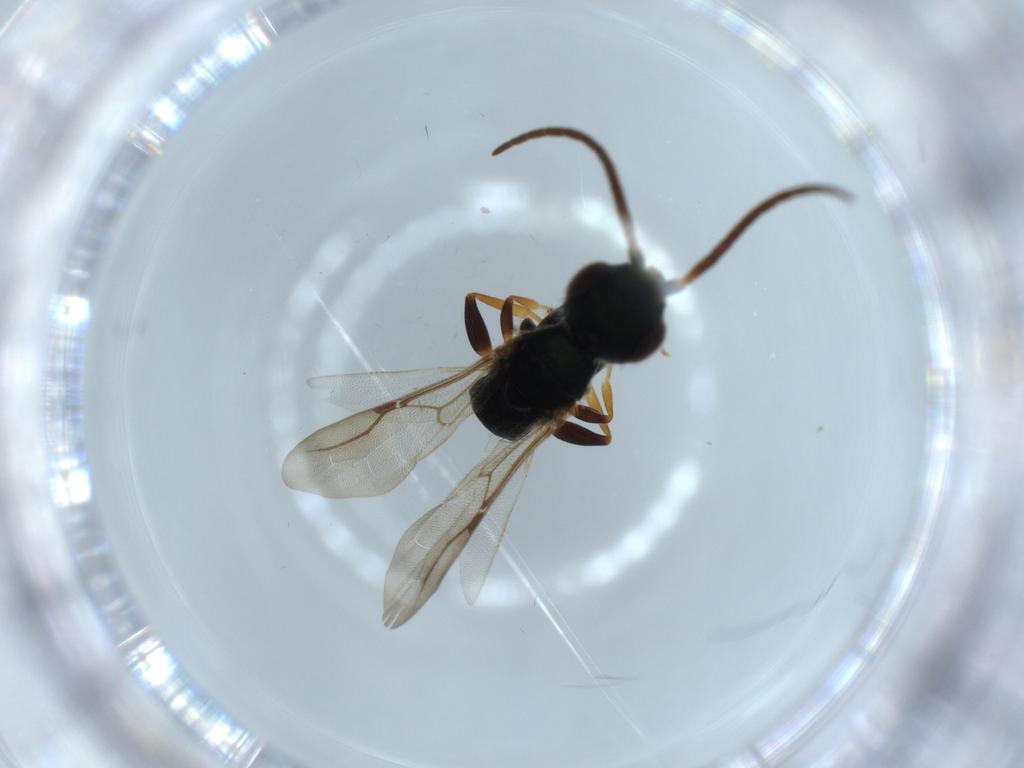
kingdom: Animalia
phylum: Arthropoda
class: Insecta
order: Hymenoptera
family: Bethylidae
